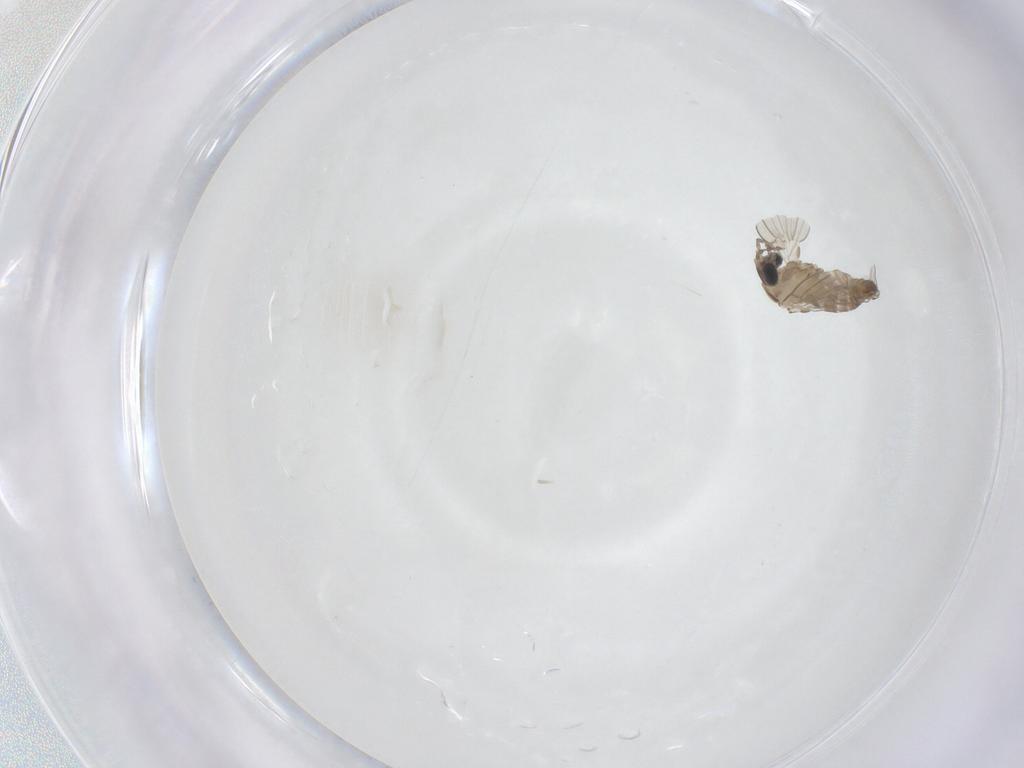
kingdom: Animalia
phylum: Arthropoda
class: Insecta
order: Diptera
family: Psychodidae
